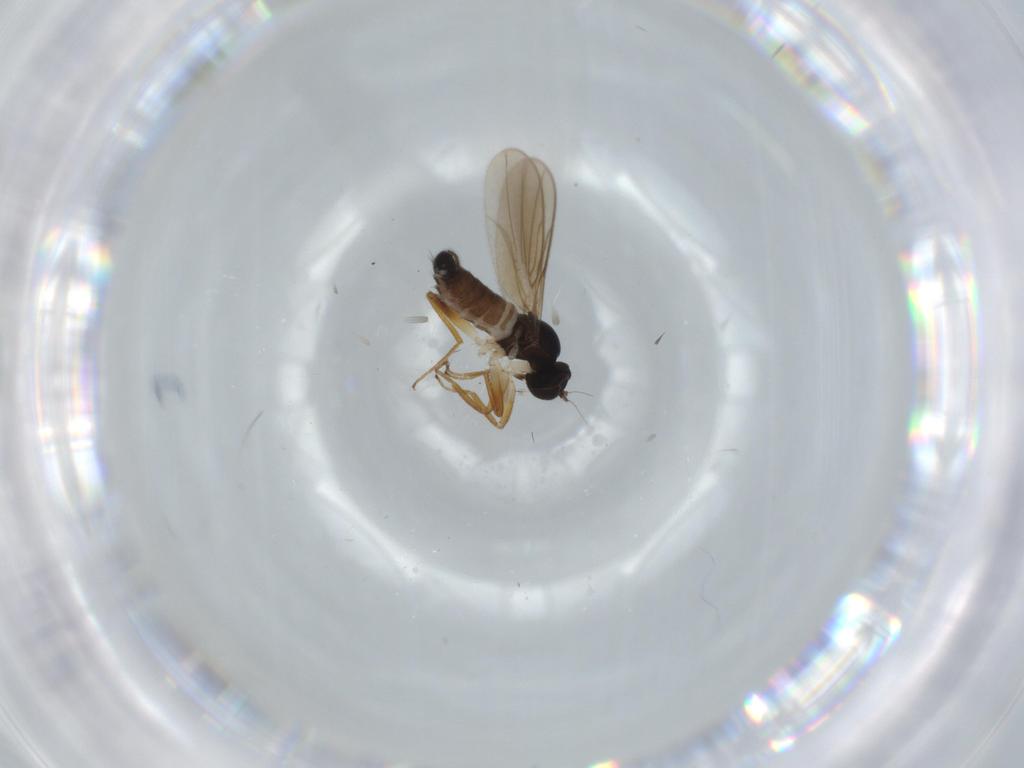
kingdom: Animalia
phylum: Arthropoda
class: Insecta
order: Diptera
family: Hybotidae
